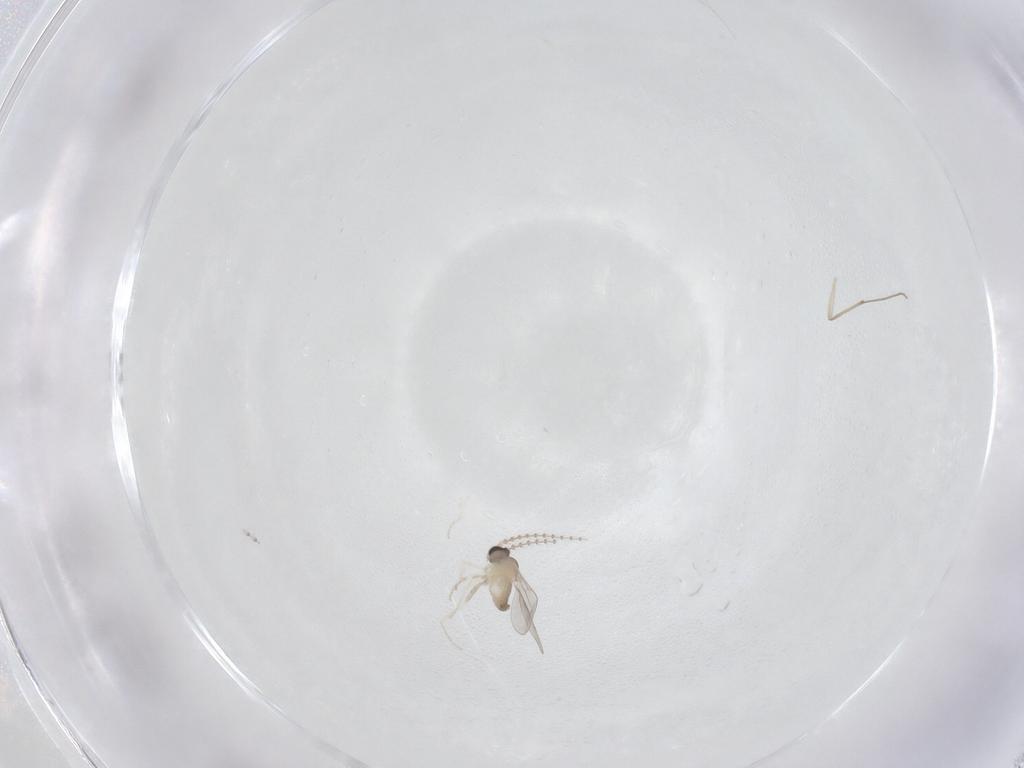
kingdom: Animalia
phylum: Arthropoda
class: Insecta
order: Diptera
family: Cecidomyiidae
